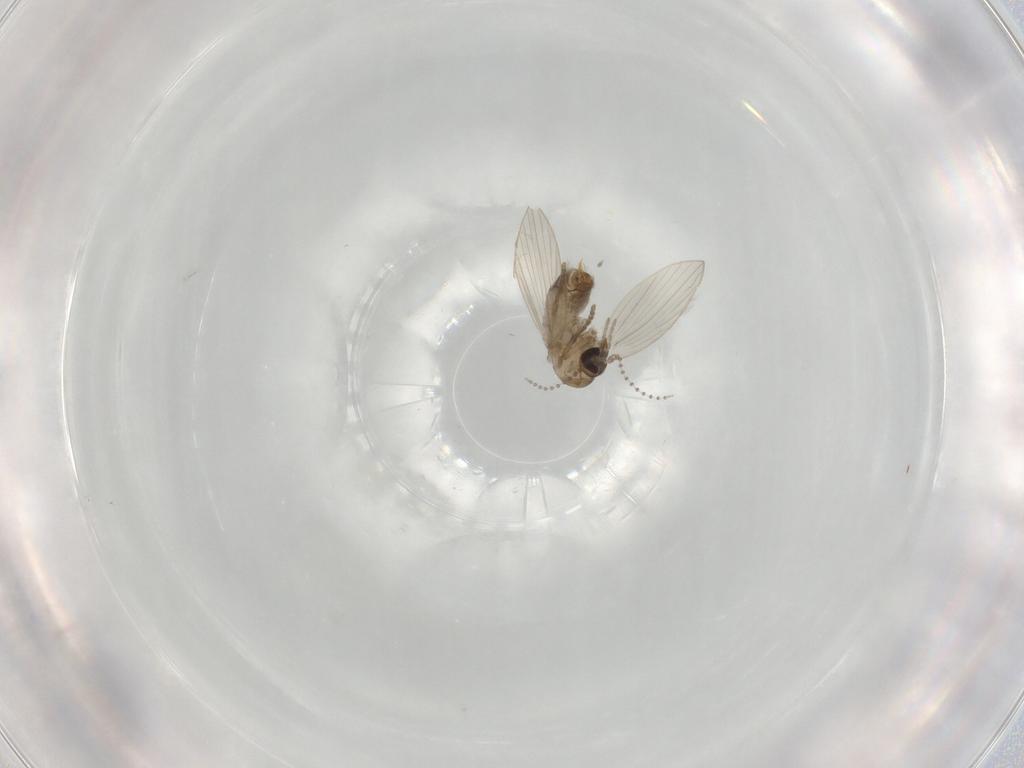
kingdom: Animalia
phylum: Arthropoda
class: Insecta
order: Diptera
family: Psychodidae
